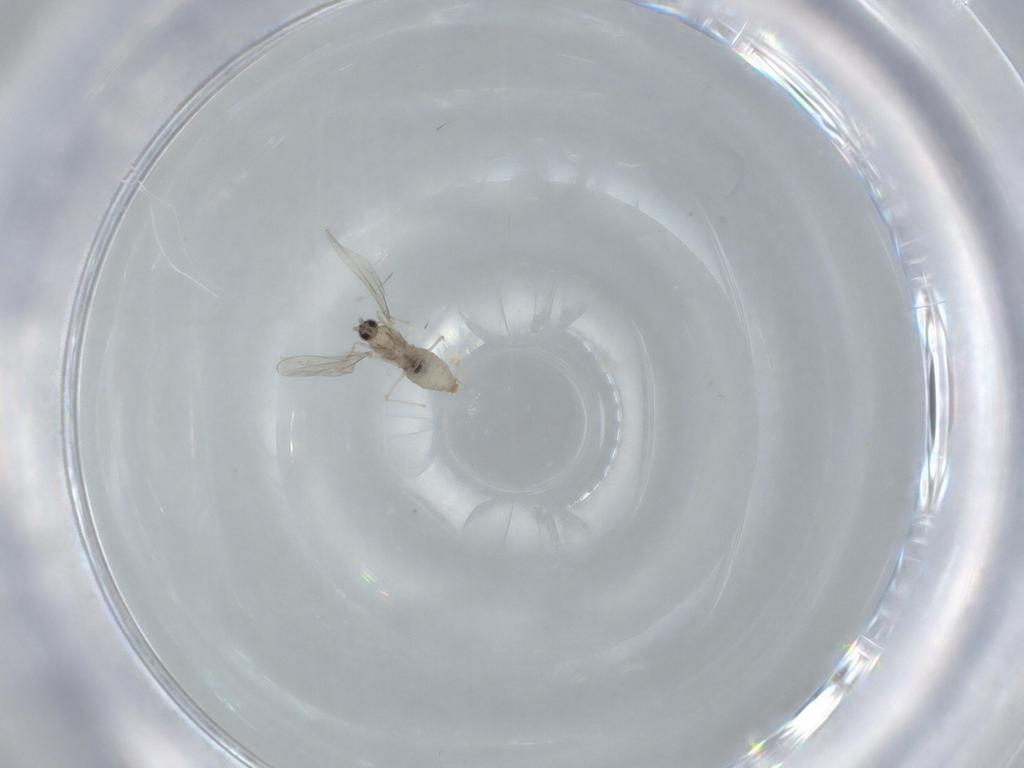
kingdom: Animalia
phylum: Arthropoda
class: Insecta
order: Diptera
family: Cecidomyiidae
